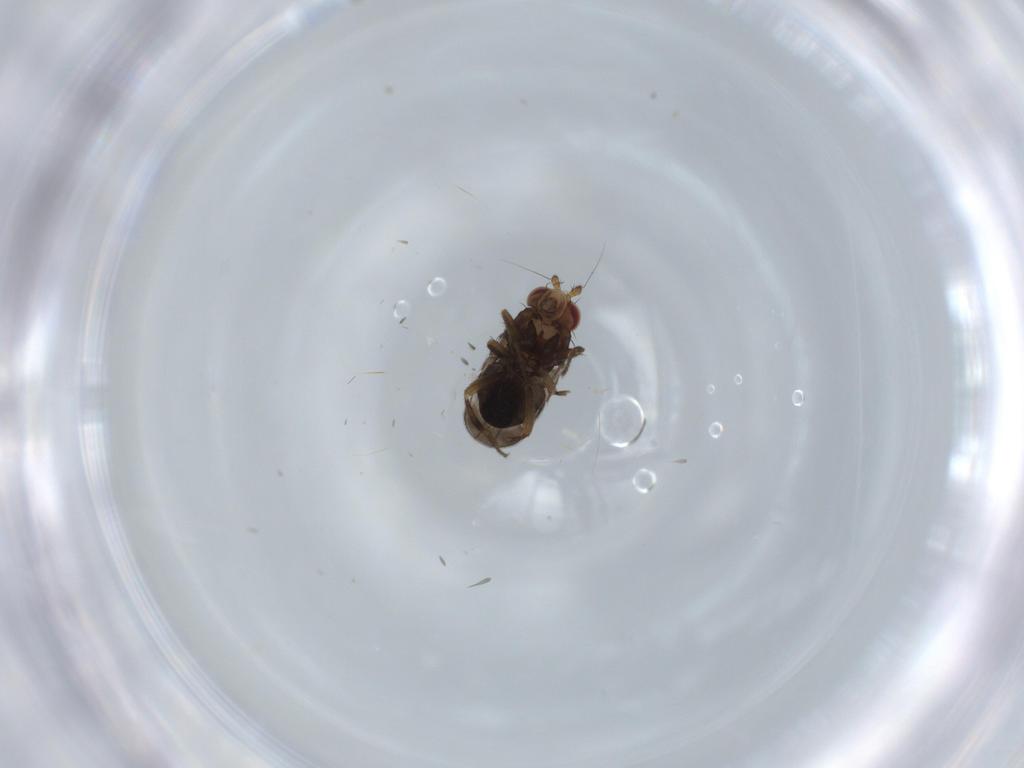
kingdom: Animalia
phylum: Arthropoda
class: Insecta
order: Diptera
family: Ceratopogonidae
